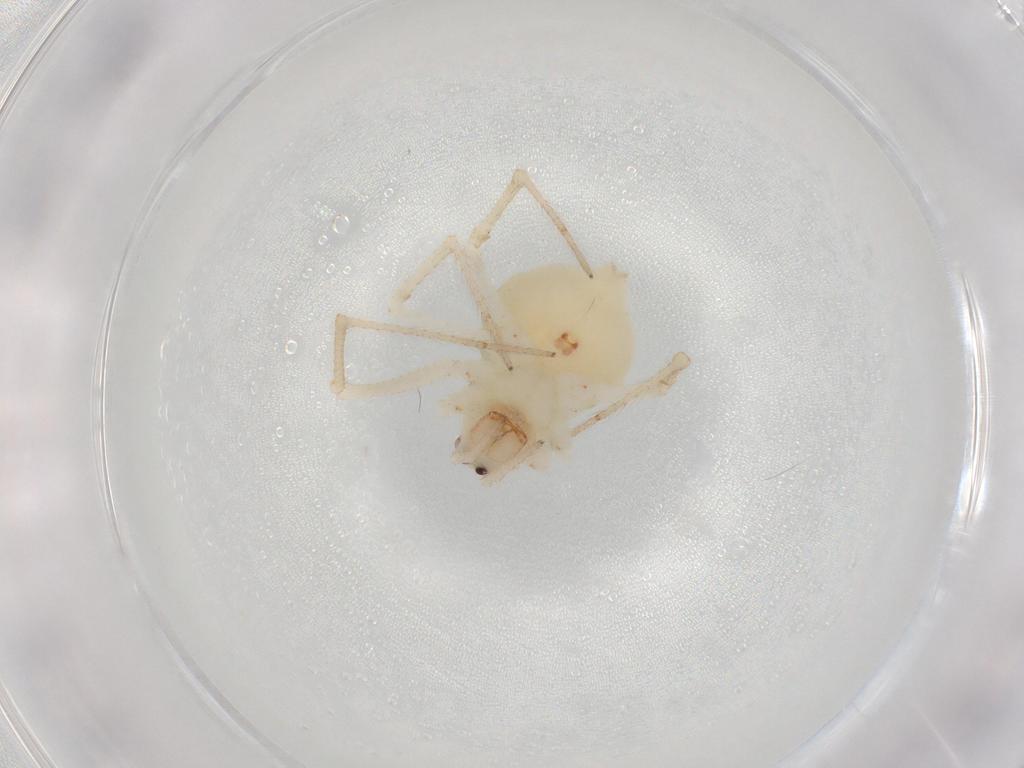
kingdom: Animalia
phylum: Arthropoda
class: Arachnida
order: Araneae
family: Theridiidae
